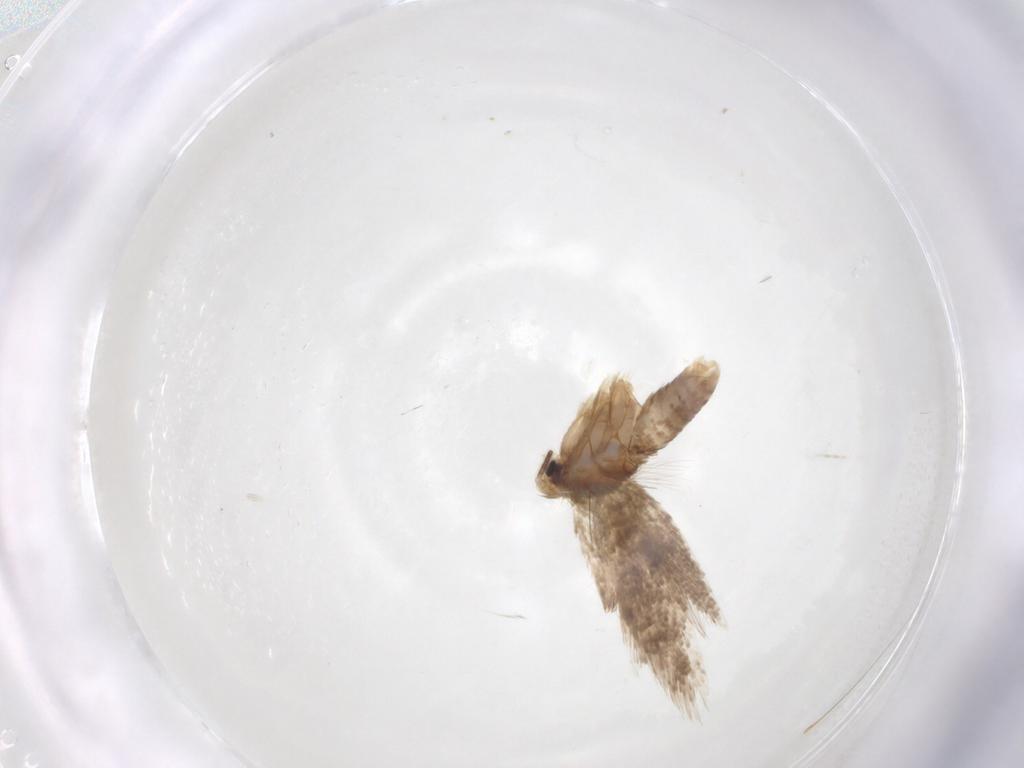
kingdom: Animalia
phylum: Arthropoda
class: Insecta
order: Lepidoptera
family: Psychidae
